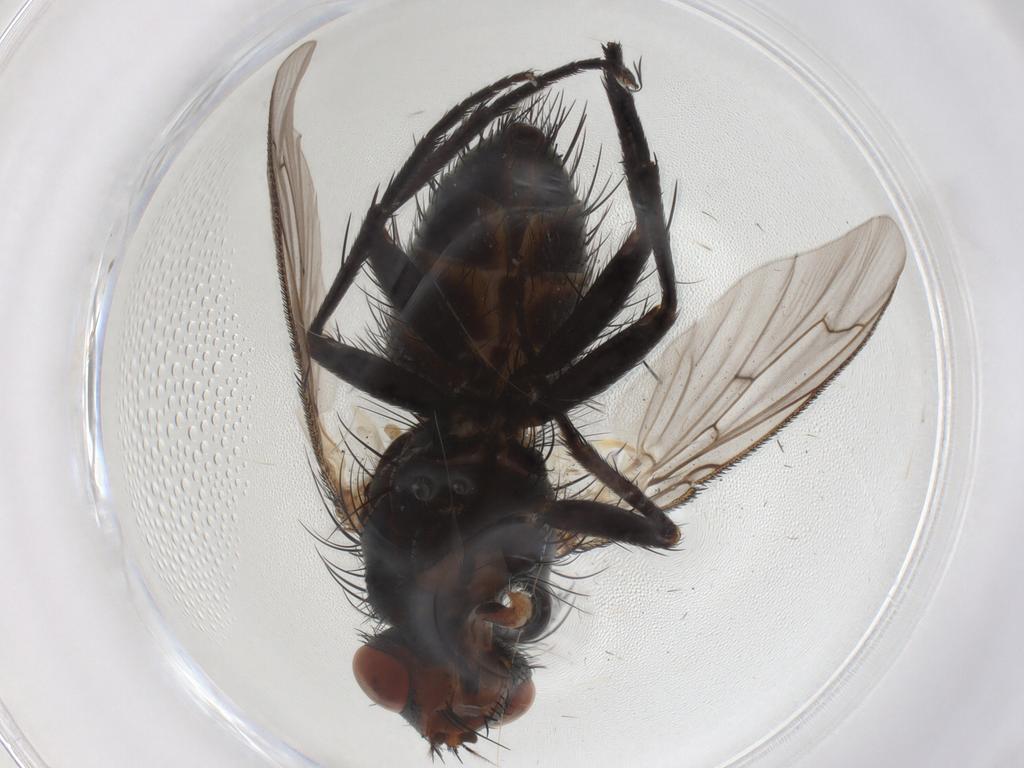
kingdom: Animalia
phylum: Arthropoda
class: Insecta
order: Diptera
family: Tachinidae
